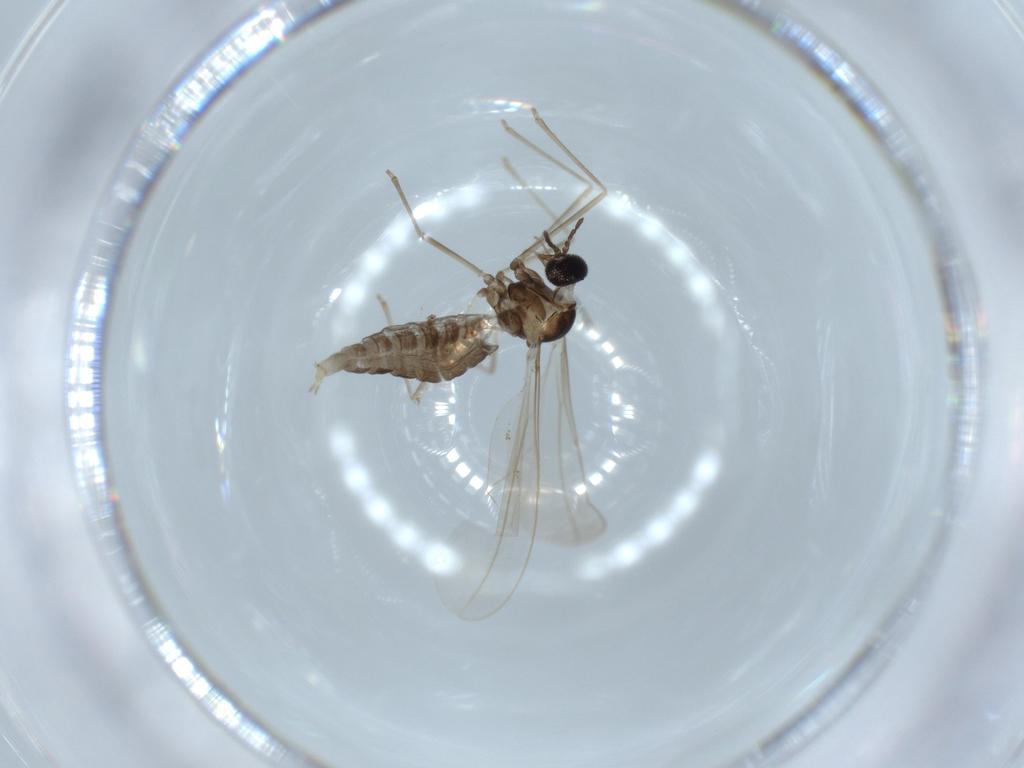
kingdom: Animalia
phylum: Arthropoda
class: Insecta
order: Diptera
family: Cecidomyiidae
